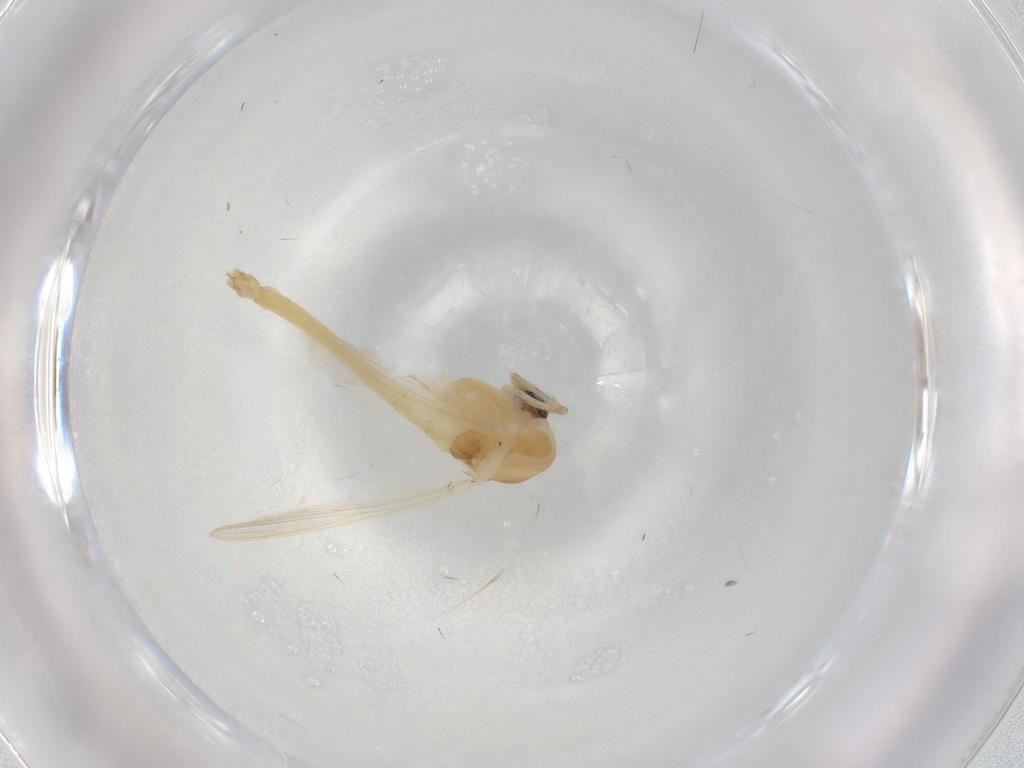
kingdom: Animalia
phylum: Arthropoda
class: Insecta
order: Diptera
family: Chironomidae
